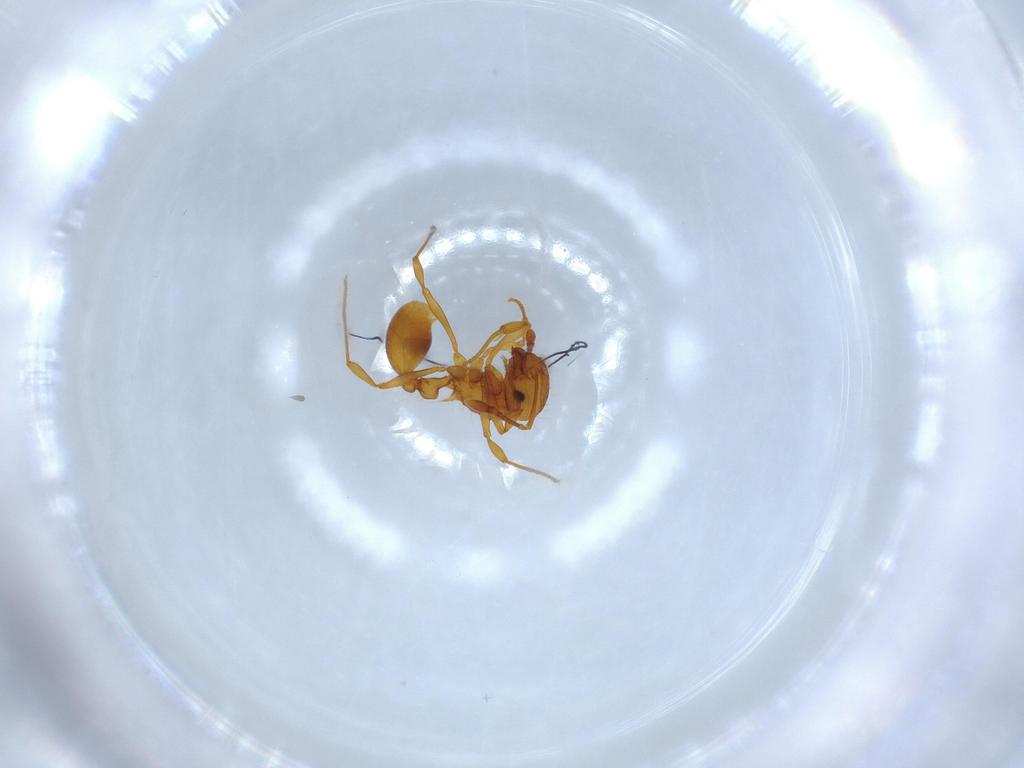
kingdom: Animalia
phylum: Arthropoda
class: Insecta
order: Hymenoptera
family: Formicidae
